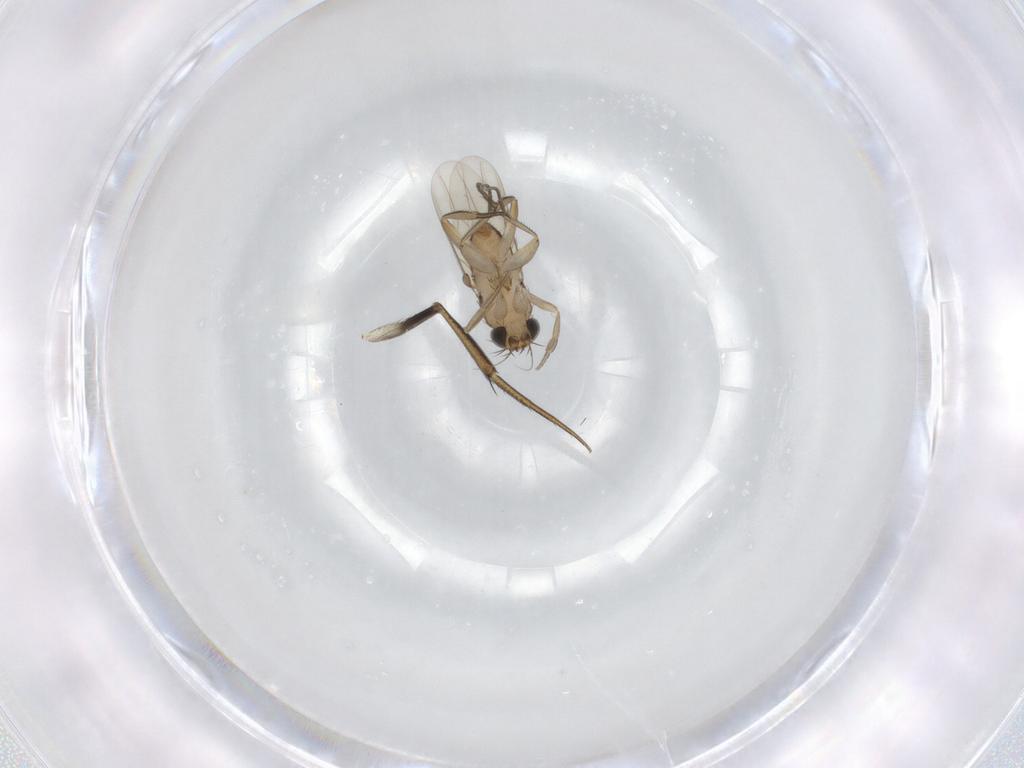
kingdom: Animalia
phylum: Arthropoda
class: Insecta
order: Diptera
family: Phoridae
